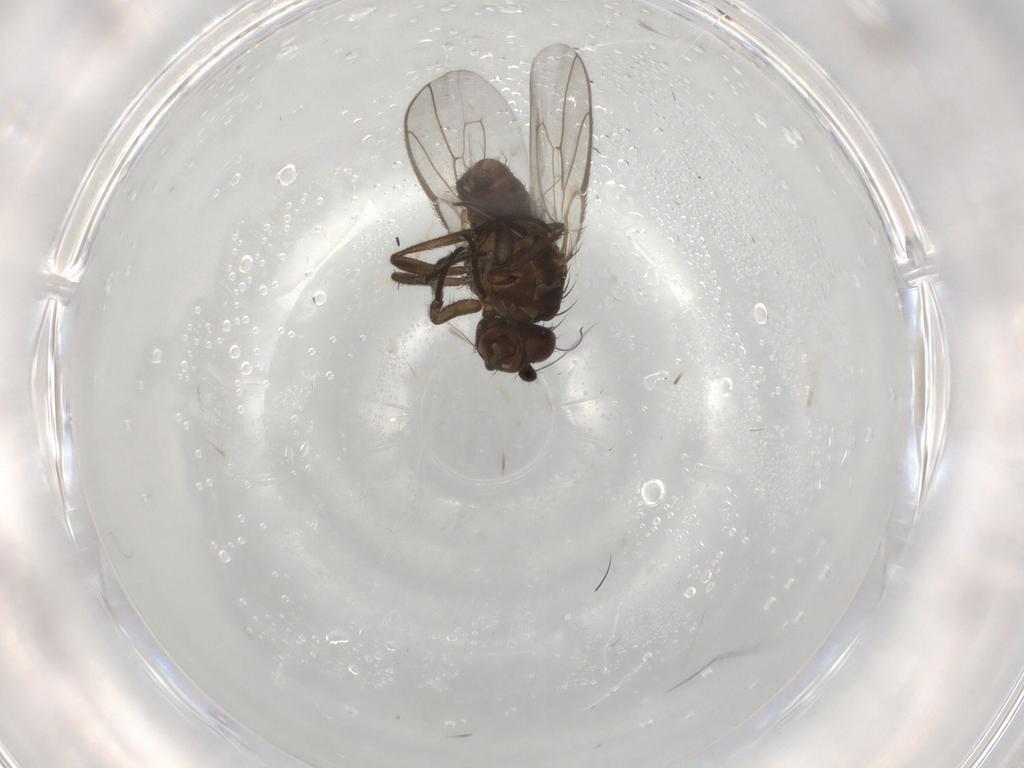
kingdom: Animalia
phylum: Arthropoda
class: Insecta
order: Diptera
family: Sphaeroceridae
